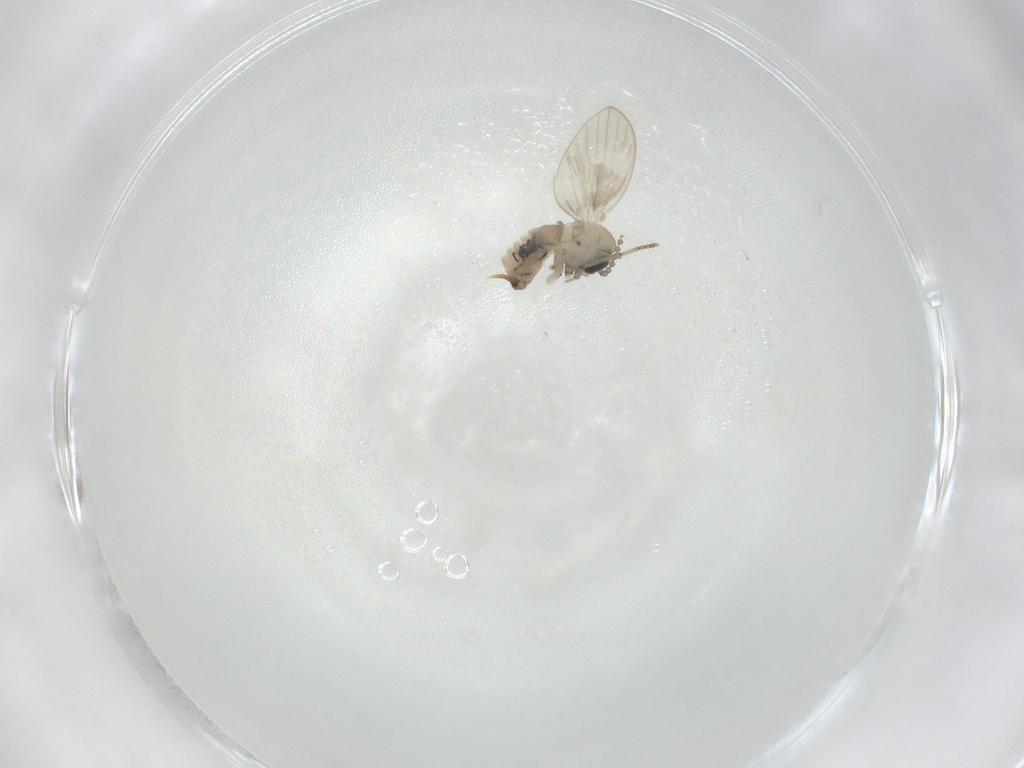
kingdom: Animalia
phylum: Arthropoda
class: Insecta
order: Diptera
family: Psychodidae
